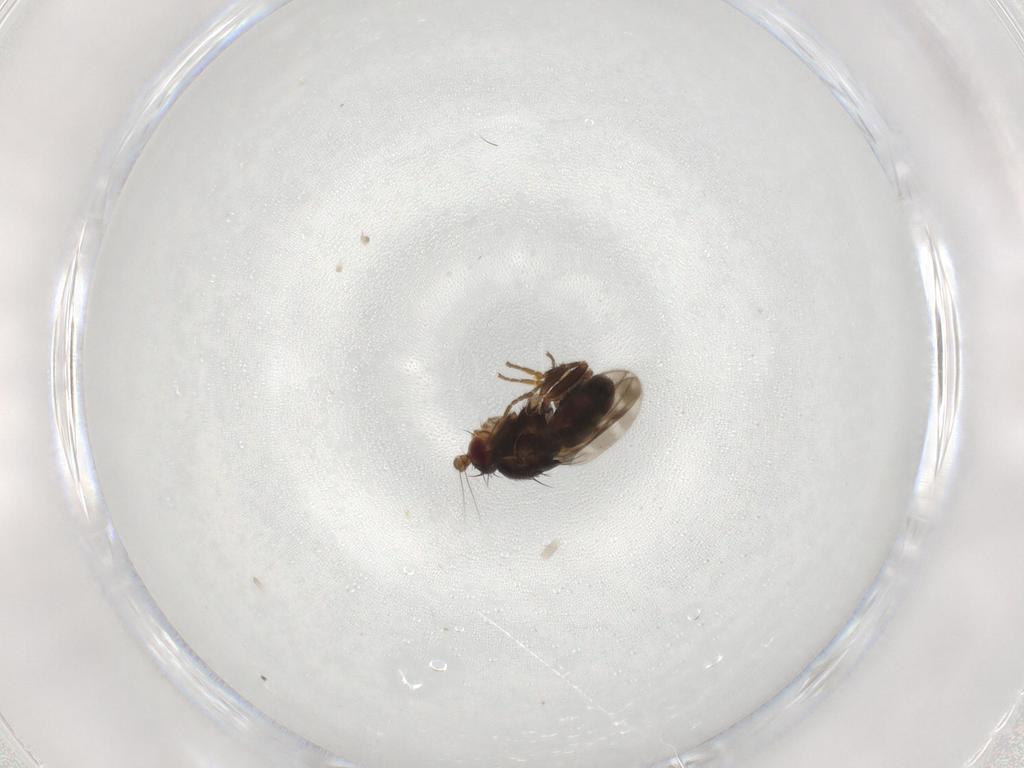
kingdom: Animalia
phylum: Arthropoda
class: Insecta
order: Diptera
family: Sphaeroceridae
